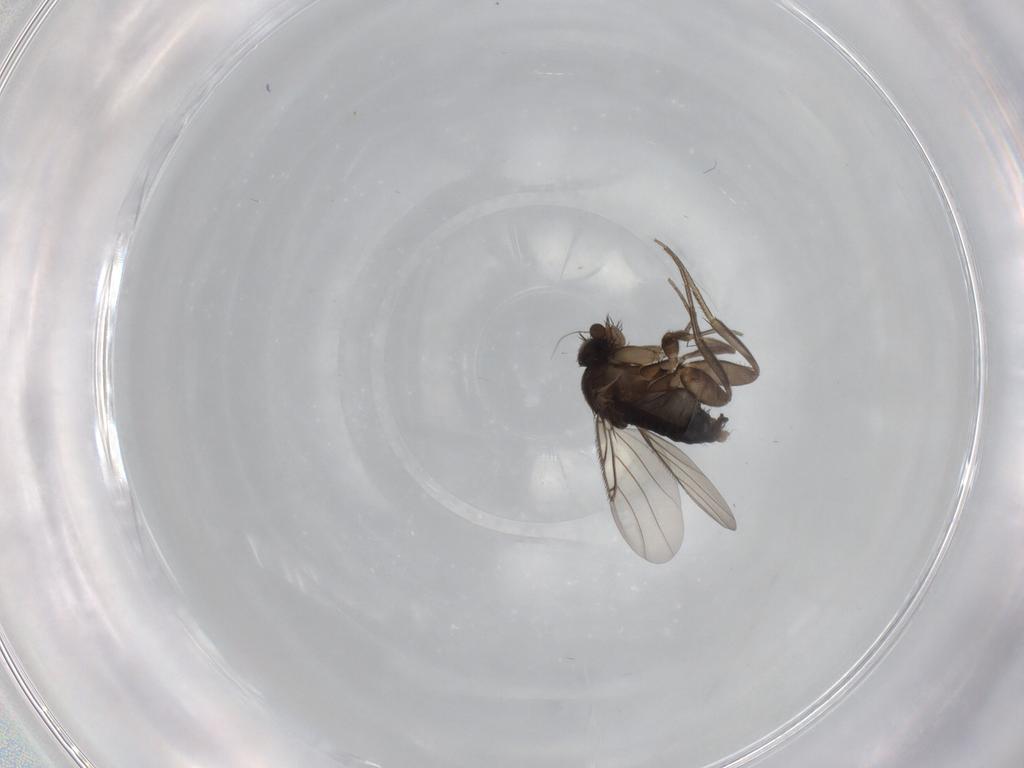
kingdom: Animalia
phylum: Arthropoda
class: Insecta
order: Diptera
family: Phoridae
